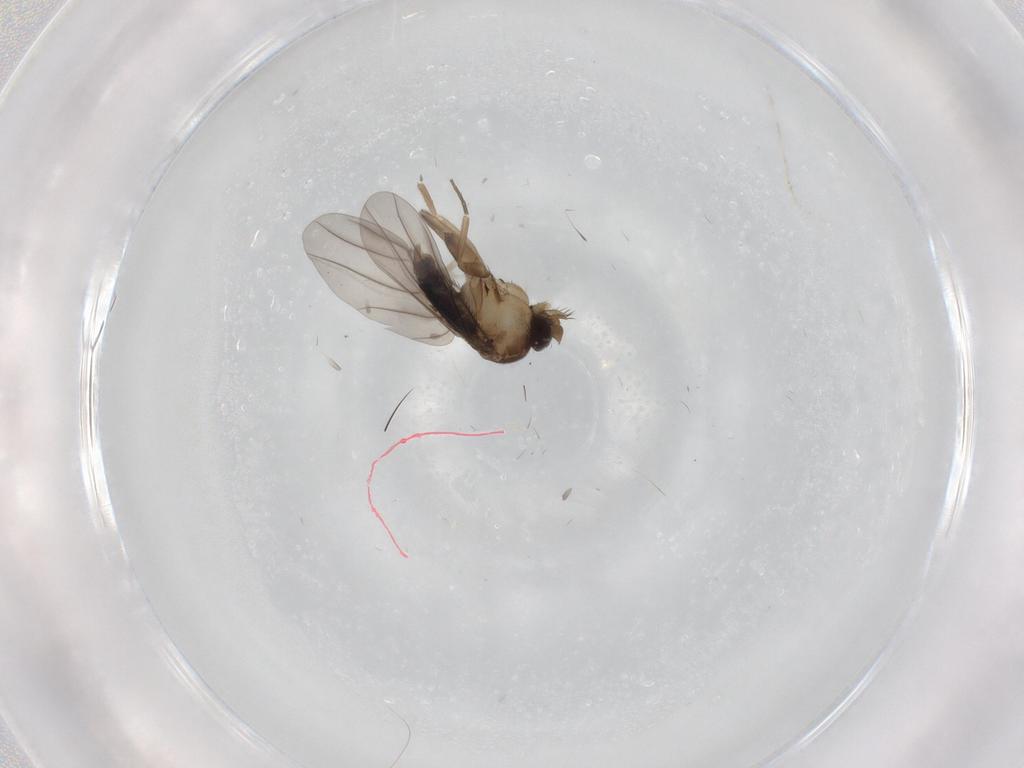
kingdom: Animalia
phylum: Arthropoda
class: Insecta
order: Diptera
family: Phoridae
